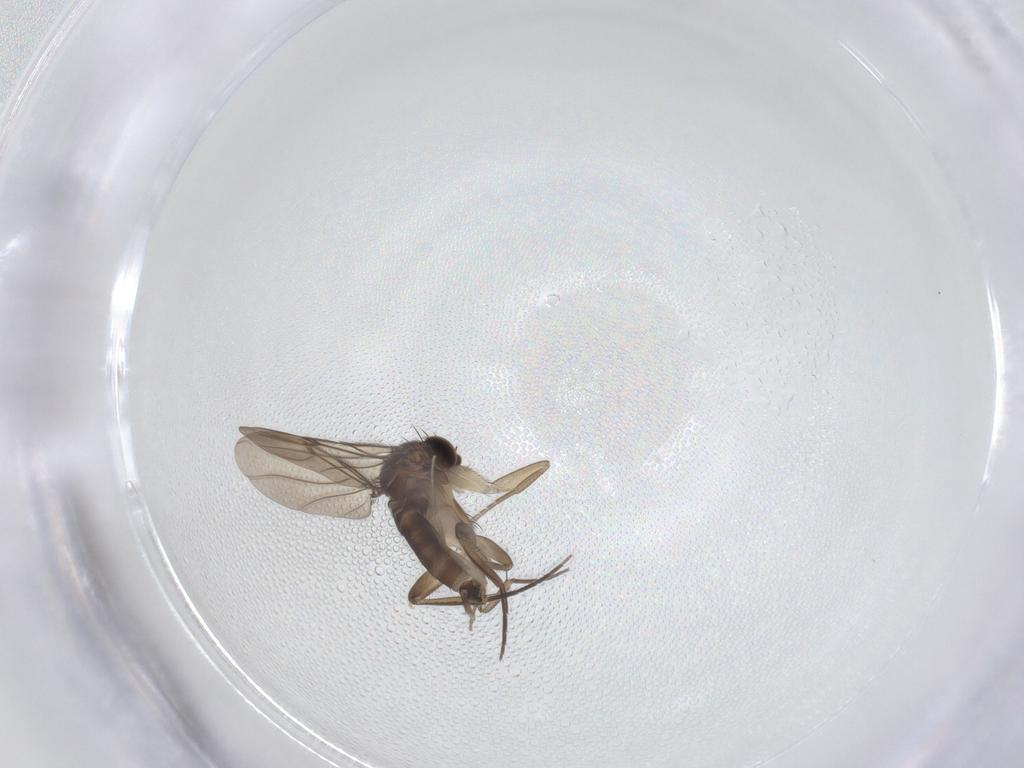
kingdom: Animalia
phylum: Arthropoda
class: Insecta
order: Diptera
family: Phoridae
